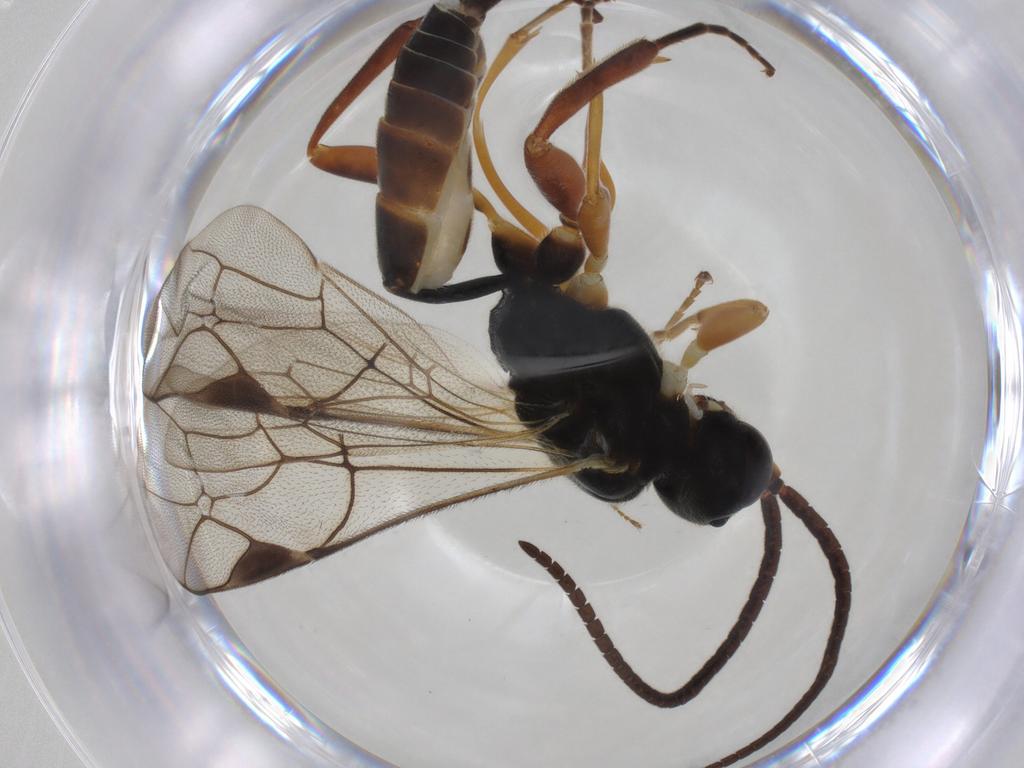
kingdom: Animalia
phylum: Arthropoda
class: Insecta
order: Hymenoptera
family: Ichneumonidae
